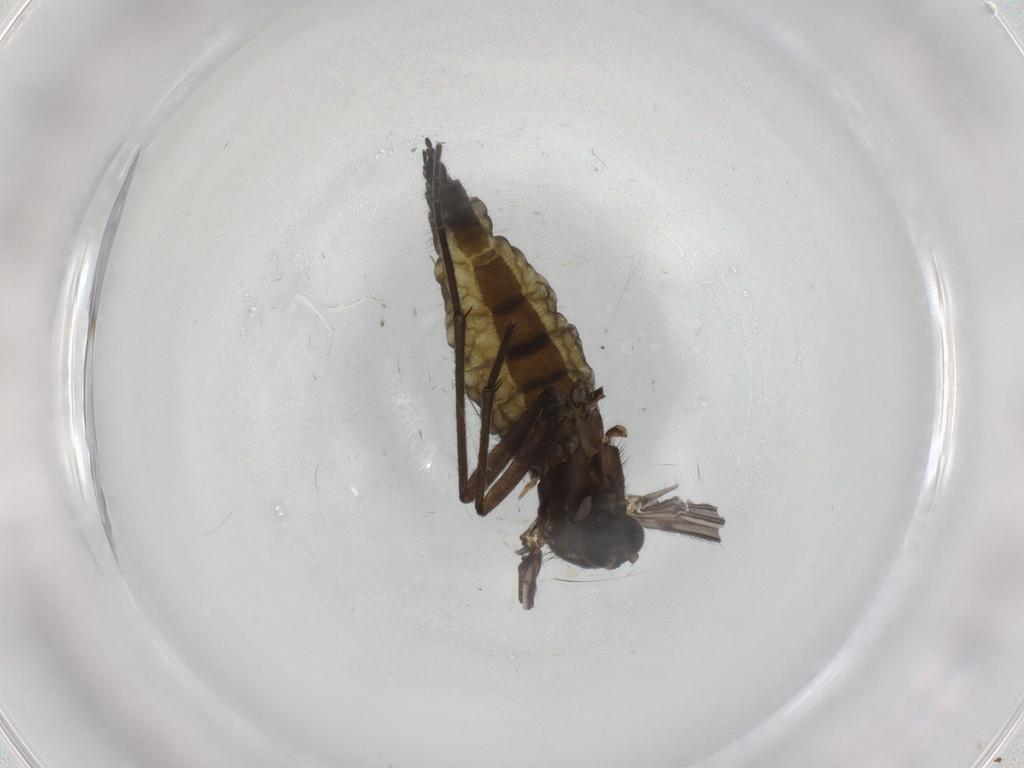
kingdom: Animalia
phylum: Arthropoda
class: Insecta
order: Diptera
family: Sciaridae
